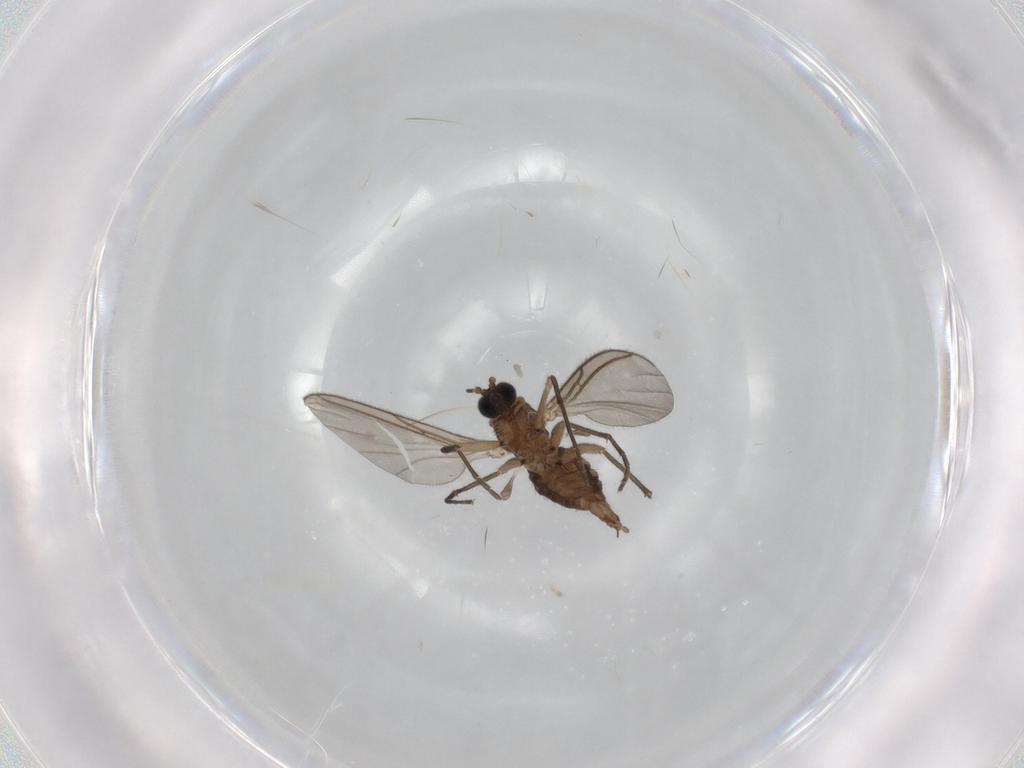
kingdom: Animalia
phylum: Arthropoda
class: Insecta
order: Diptera
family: Sciaridae
